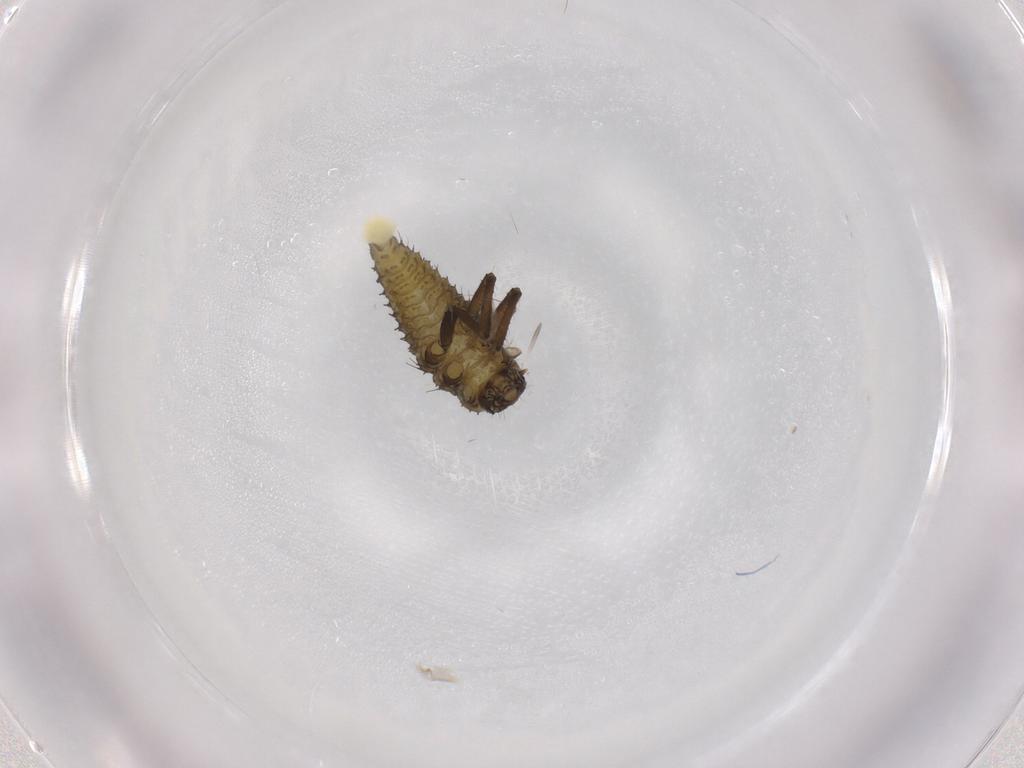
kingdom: Animalia
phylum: Arthropoda
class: Insecta
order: Coleoptera
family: Coccinellidae
